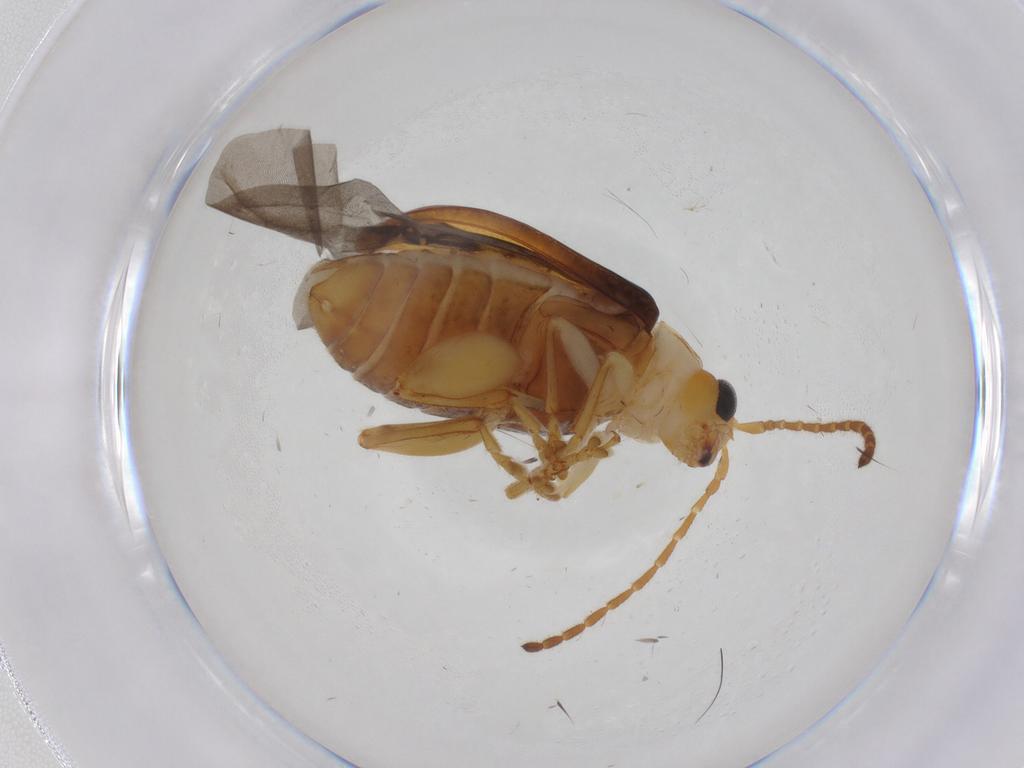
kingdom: Animalia
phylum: Arthropoda
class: Insecta
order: Coleoptera
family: Chrysomelidae
